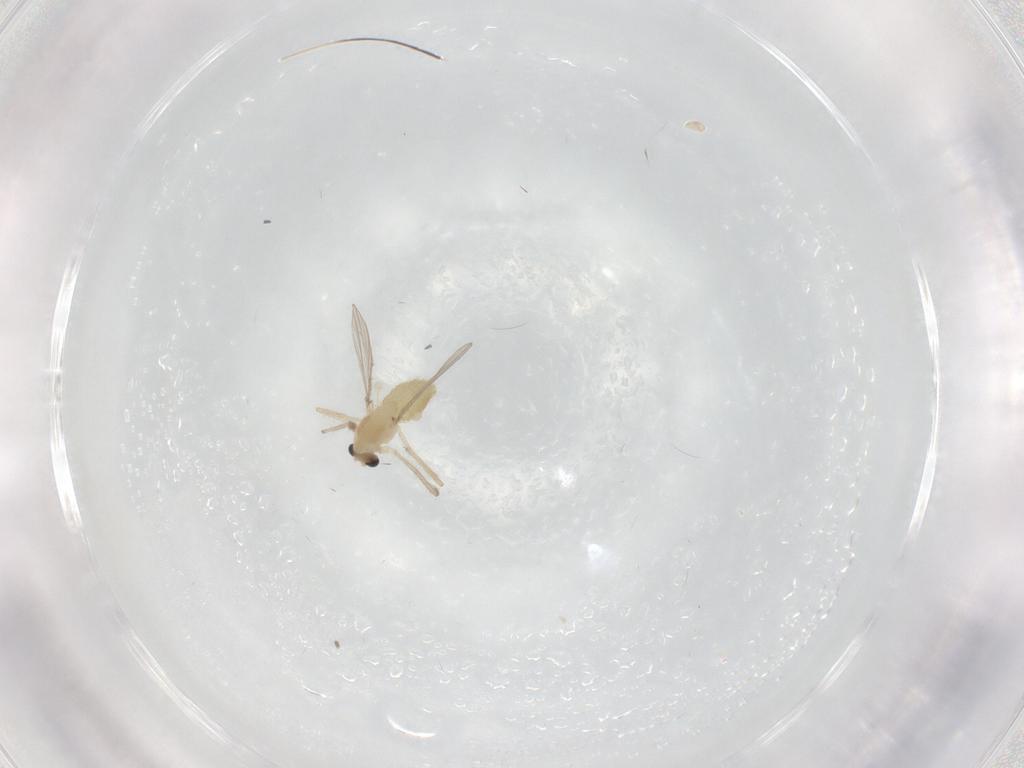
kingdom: Animalia
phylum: Arthropoda
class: Insecta
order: Diptera
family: Chironomidae
